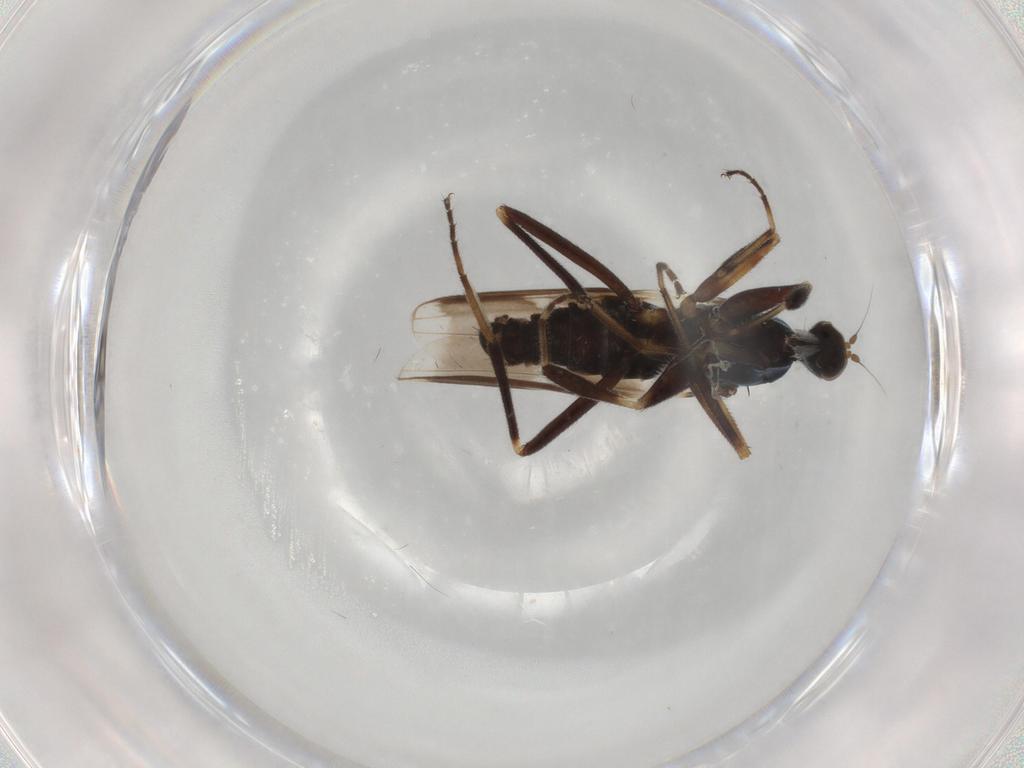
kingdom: Animalia
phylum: Arthropoda
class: Insecta
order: Diptera
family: Hybotidae
